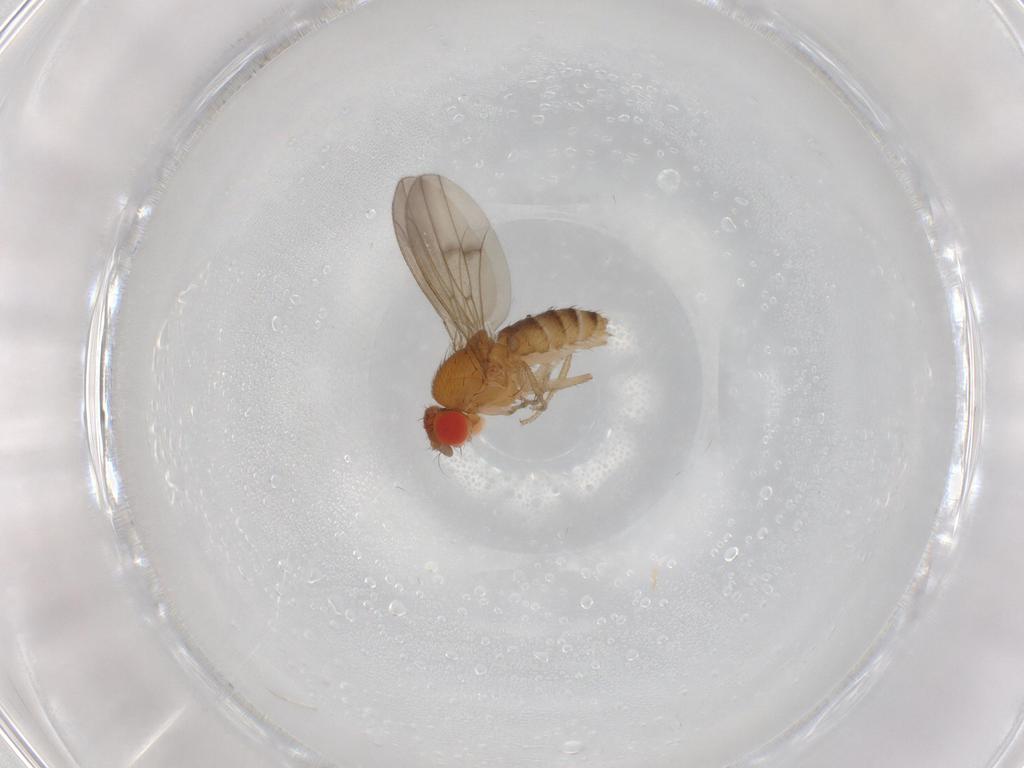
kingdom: Animalia
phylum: Arthropoda
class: Insecta
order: Diptera
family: Drosophilidae
